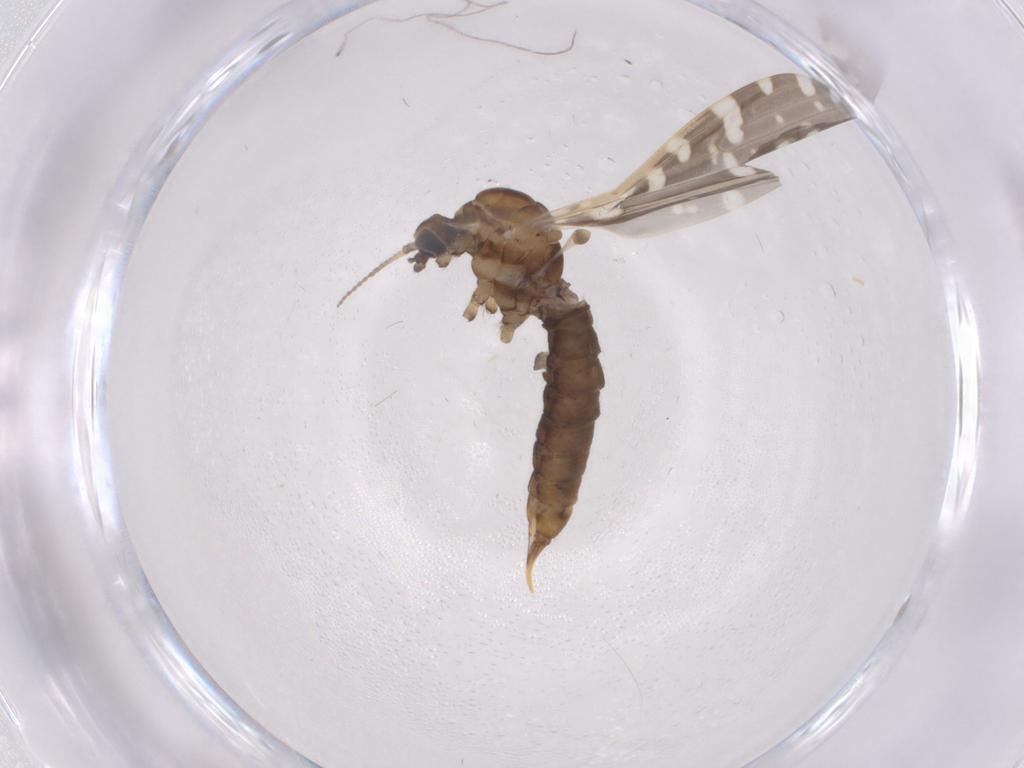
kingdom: Animalia
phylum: Arthropoda
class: Insecta
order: Diptera
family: Limoniidae
